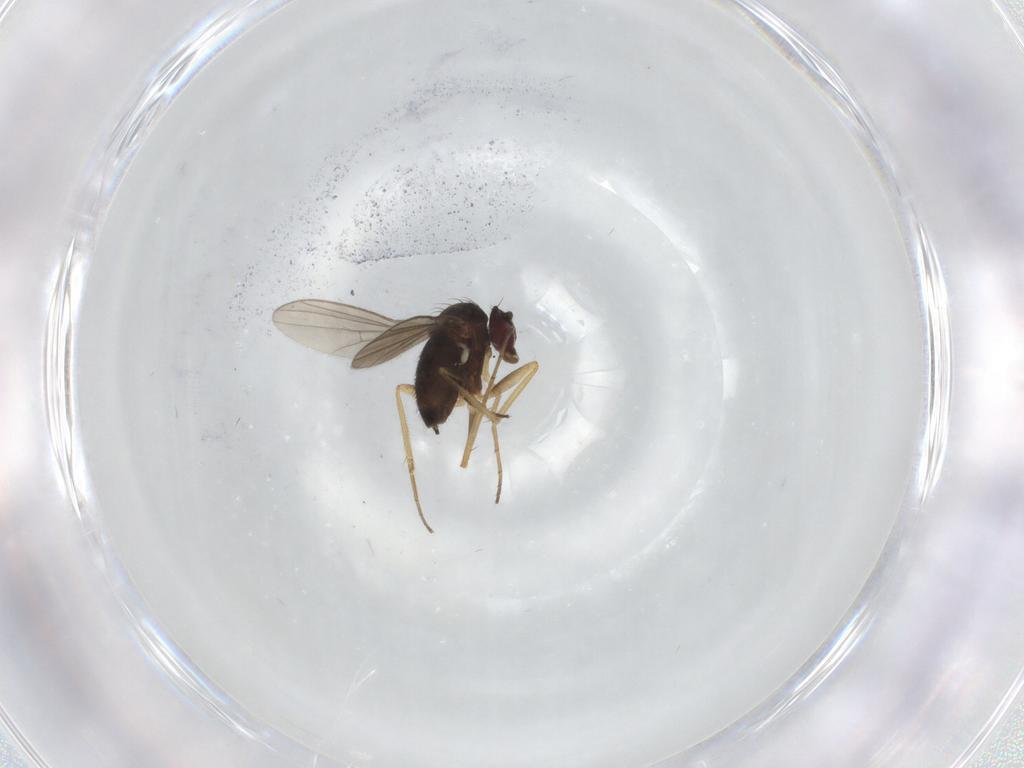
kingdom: Animalia
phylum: Arthropoda
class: Insecta
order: Diptera
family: Dolichopodidae
